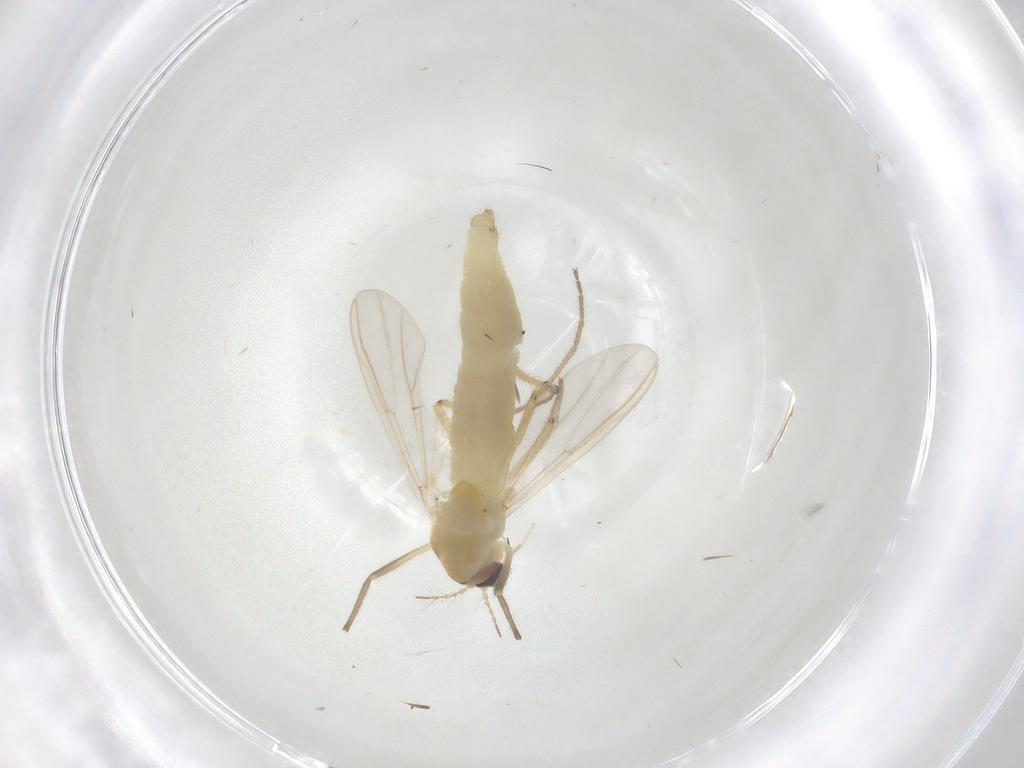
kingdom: Animalia
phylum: Arthropoda
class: Insecta
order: Diptera
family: Chironomidae
